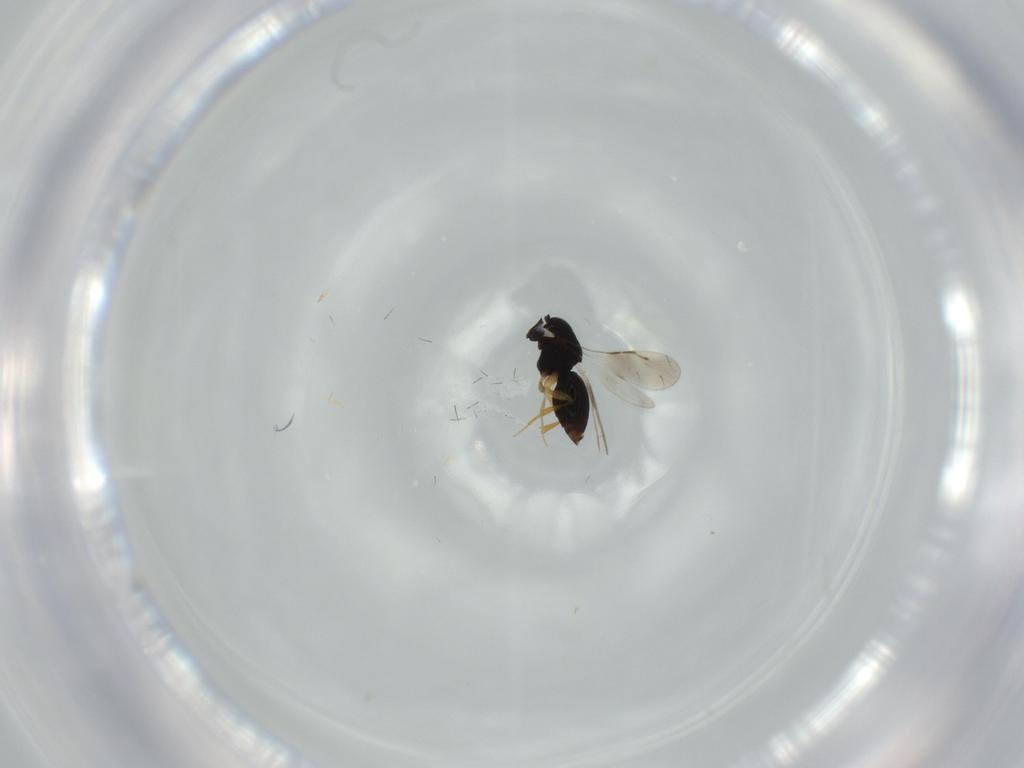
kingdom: Animalia
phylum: Arthropoda
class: Insecta
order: Hymenoptera
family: Ceraphronidae
